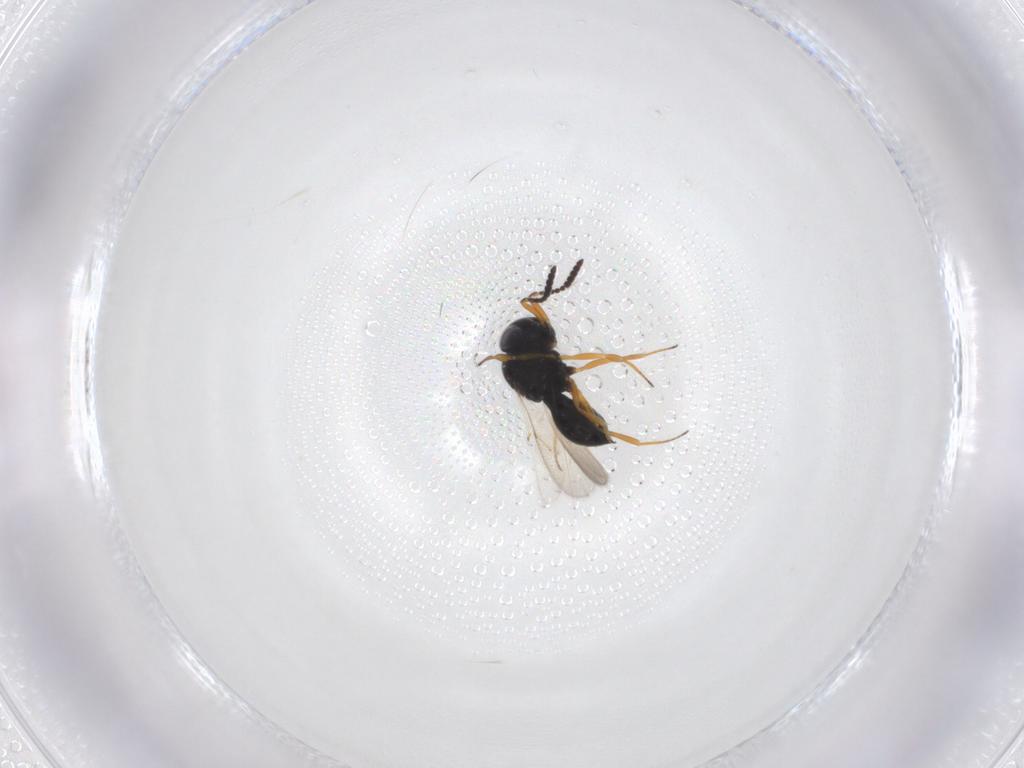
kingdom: Animalia
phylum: Arthropoda
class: Insecta
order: Hymenoptera
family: Scelionidae
